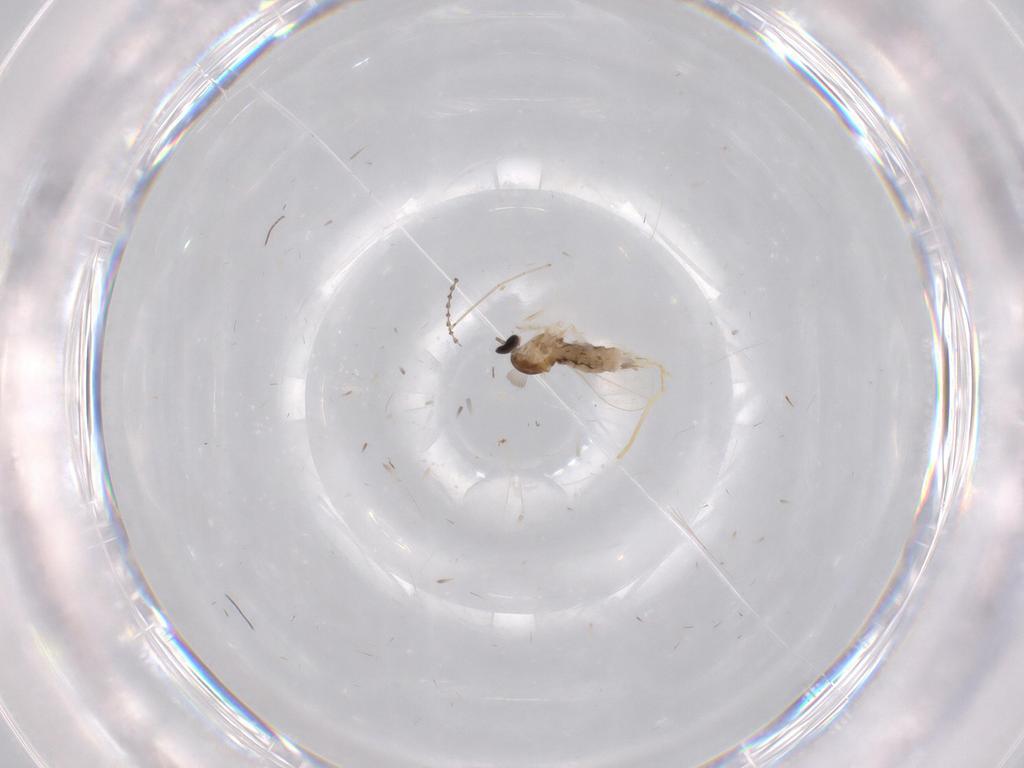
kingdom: Animalia
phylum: Arthropoda
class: Insecta
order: Diptera
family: Cecidomyiidae
